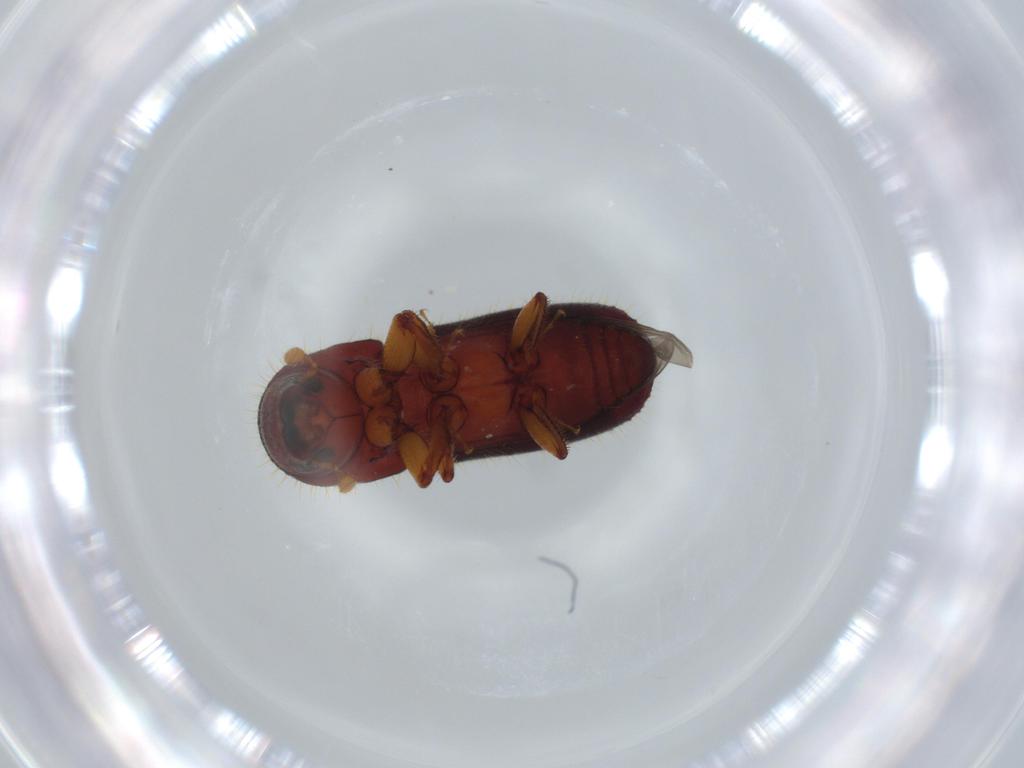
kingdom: Animalia
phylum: Arthropoda
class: Insecta
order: Coleoptera
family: Curculionidae
